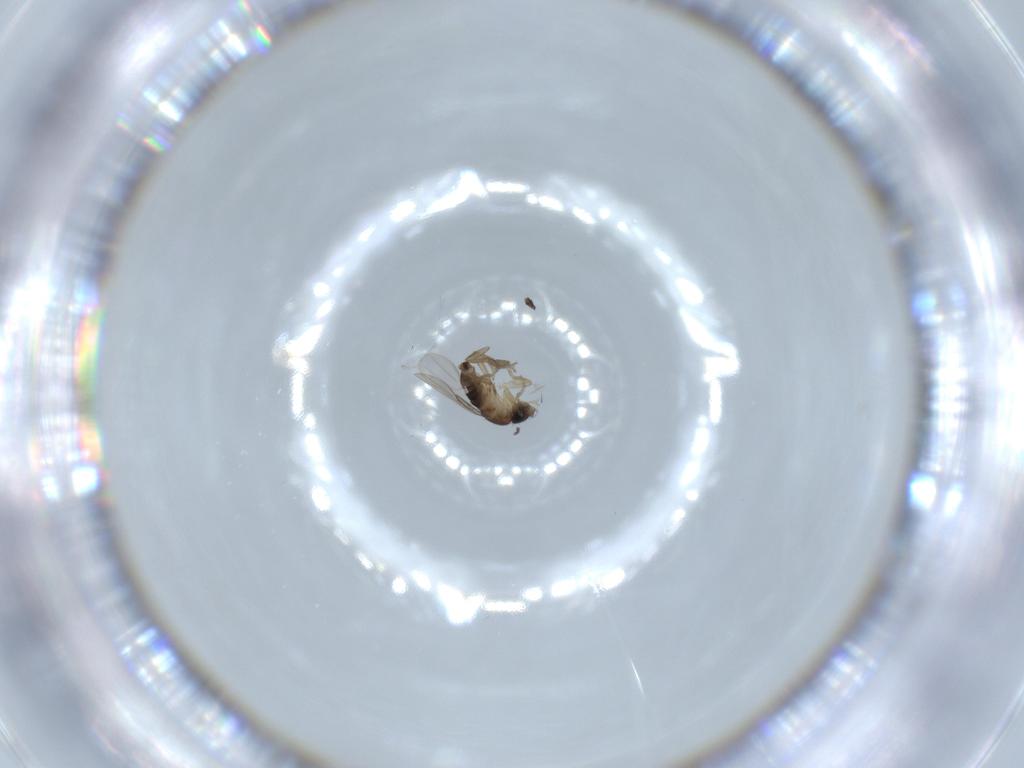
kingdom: Animalia
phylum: Arthropoda
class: Insecta
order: Diptera
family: Phoridae
